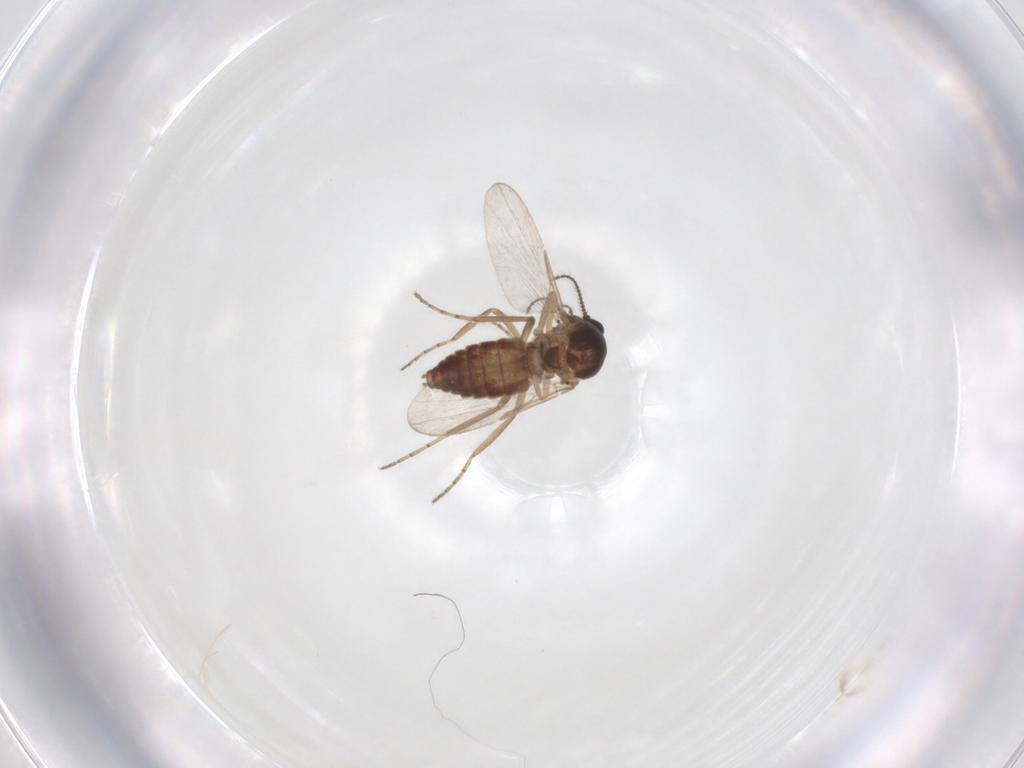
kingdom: Animalia
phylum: Arthropoda
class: Insecta
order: Diptera
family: Ceratopogonidae
